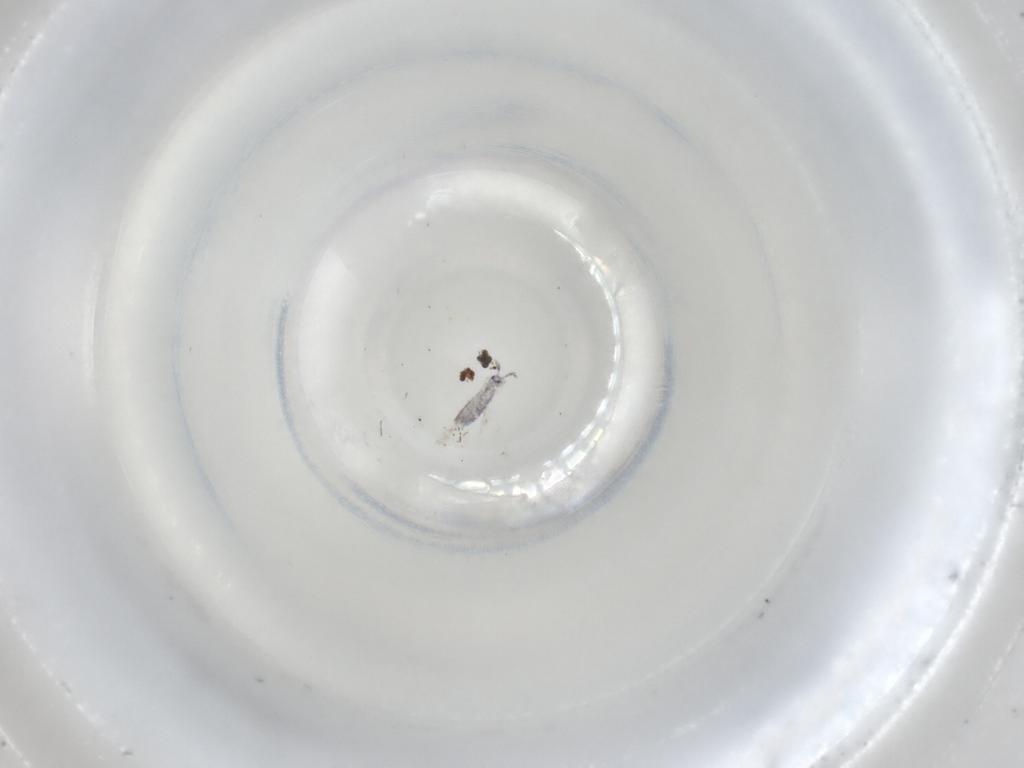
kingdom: Animalia
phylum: Arthropoda
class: Collembola
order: Entomobryomorpha
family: Entomobryidae
